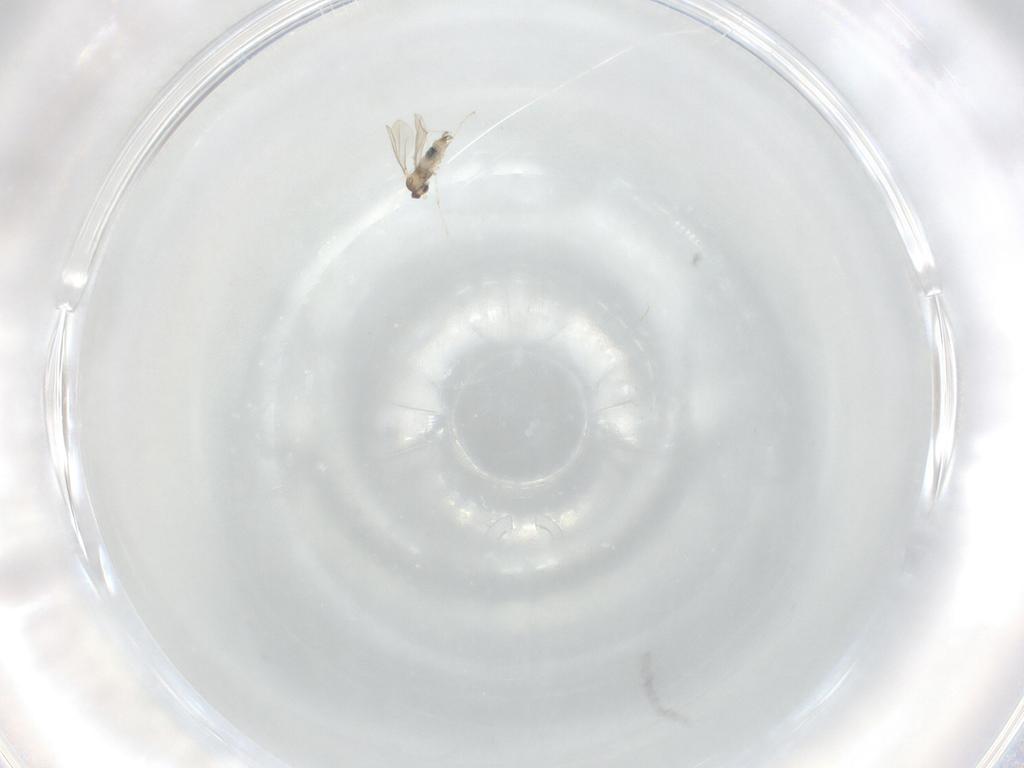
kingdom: Animalia
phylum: Arthropoda
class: Insecta
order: Diptera
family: Cecidomyiidae
